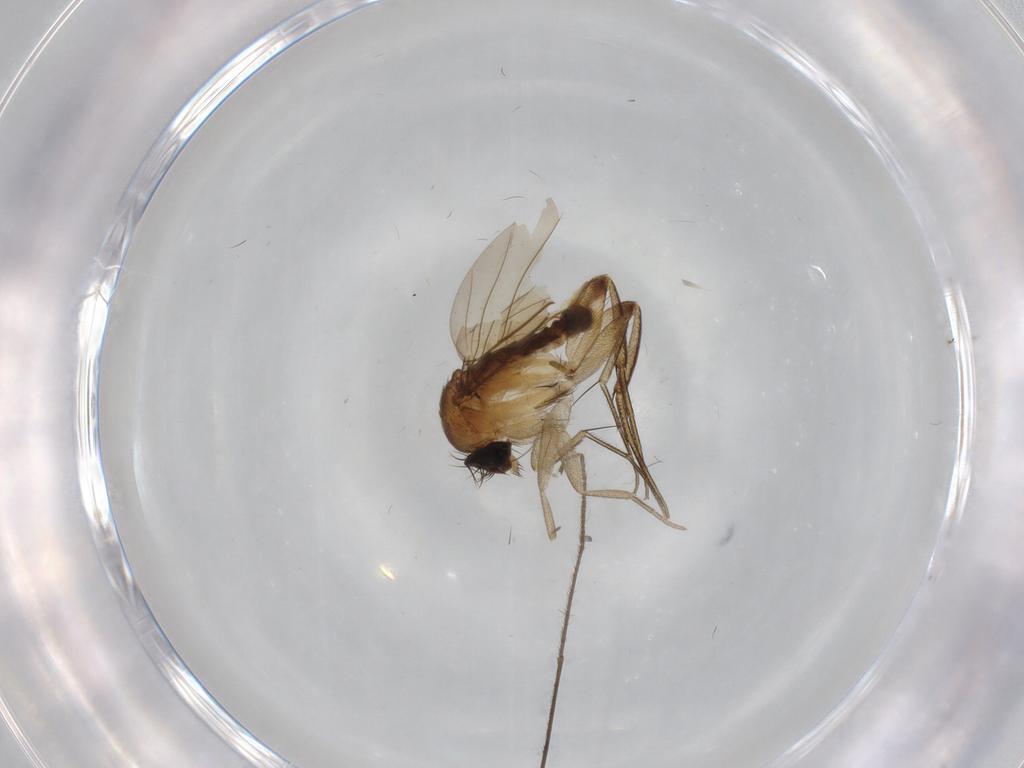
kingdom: Animalia
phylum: Arthropoda
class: Insecta
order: Diptera
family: Phoridae
